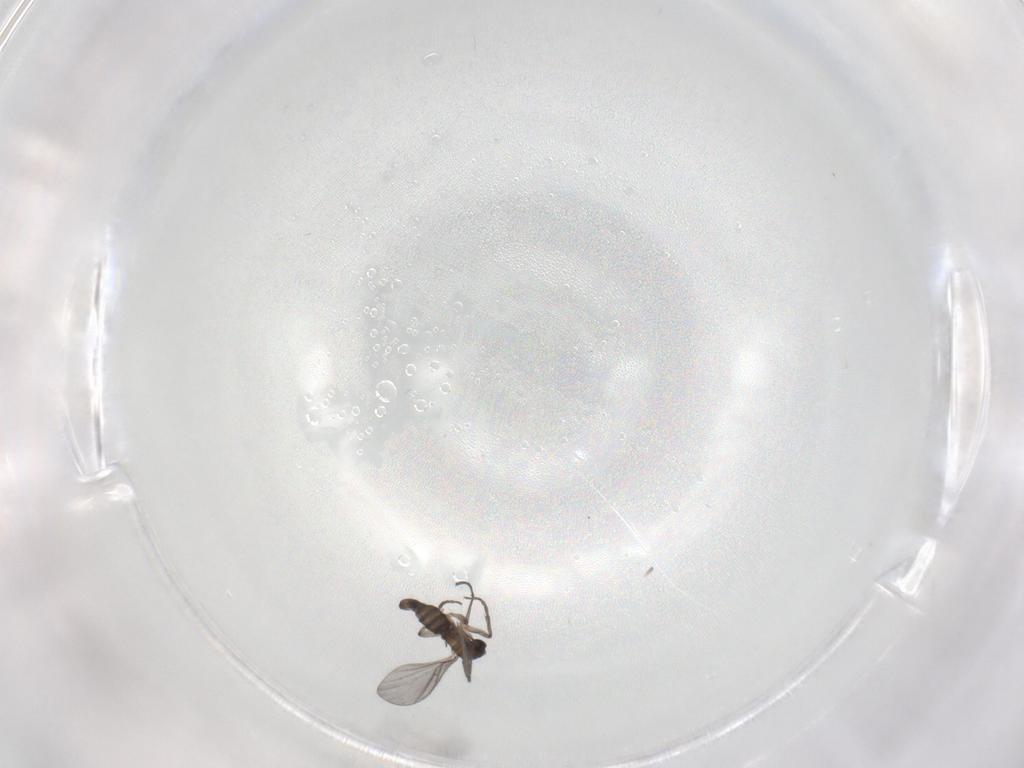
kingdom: Animalia
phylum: Arthropoda
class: Insecta
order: Diptera
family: Sciaridae
